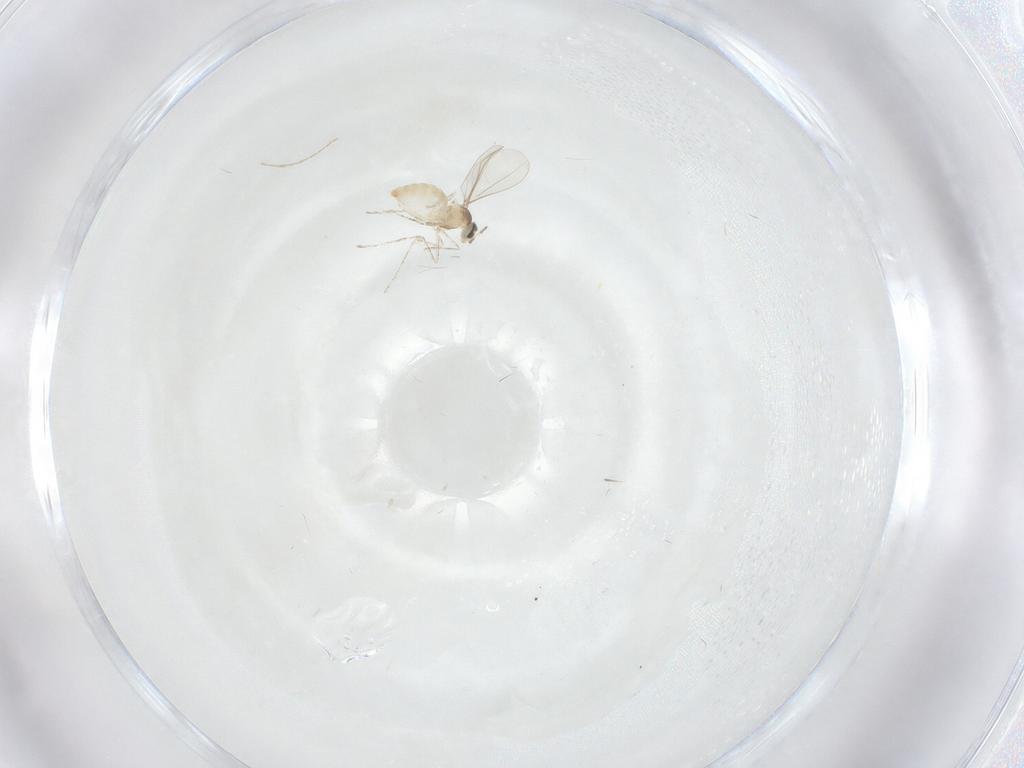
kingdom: Animalia
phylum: Arthropoda
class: Insecta
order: Diptera
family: Cecidomyiidae
